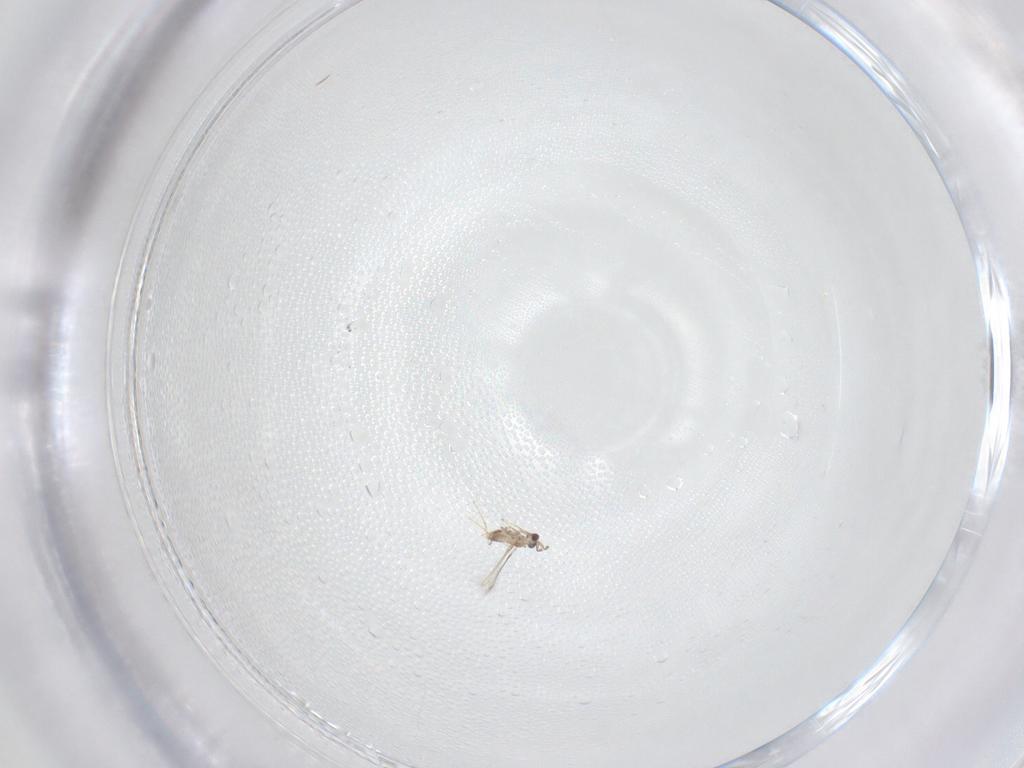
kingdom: Animalia
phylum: Arthropoda
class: Insecta
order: Hymenoptera
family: Mymaridae
